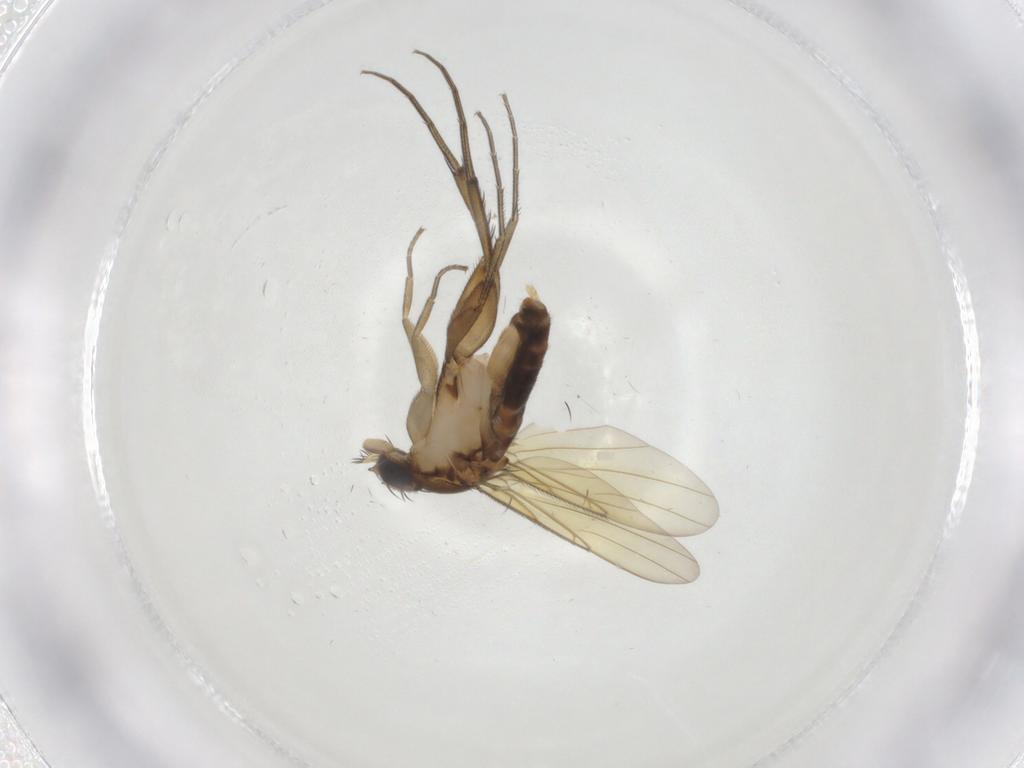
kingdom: Animalia
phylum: Arthropoda
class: Insecta
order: Diptera
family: Phoridae
